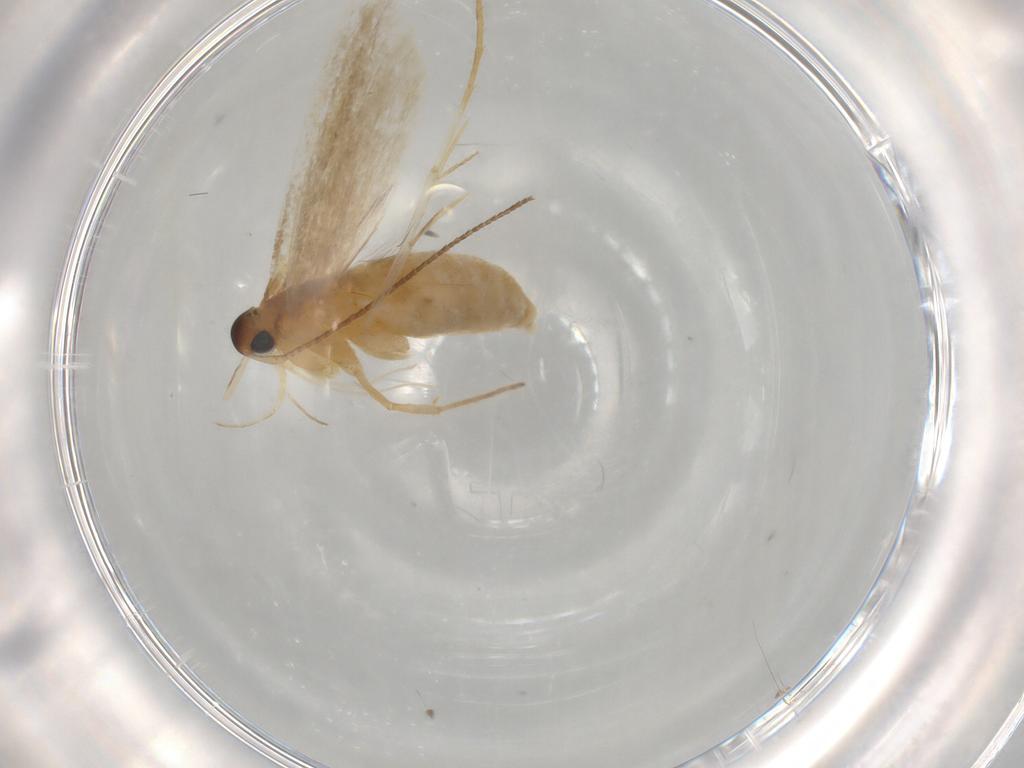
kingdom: Animalia
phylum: Arthropoda
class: Insecta
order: Lepidoptera
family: Lecithoceridae
